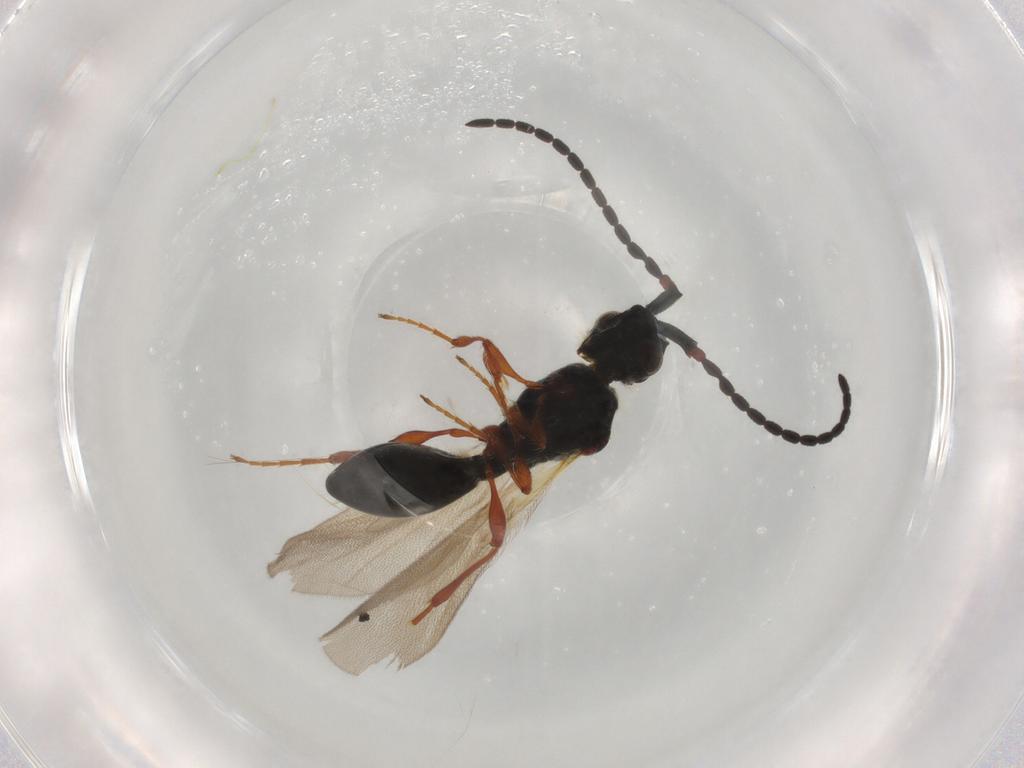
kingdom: Animalia
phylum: Arthropoda
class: Insecta
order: Hymenoptera
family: Diapriidae
